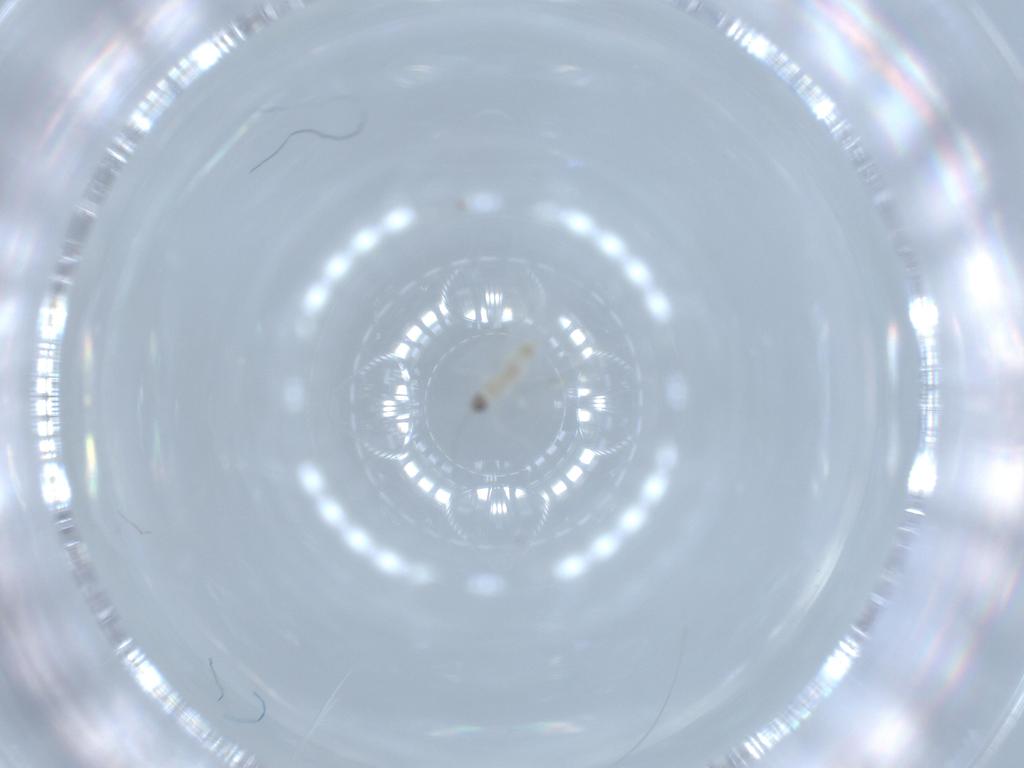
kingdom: Animalia
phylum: Arthropoda
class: Insecta
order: Diptera
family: Cecidomyiidae
